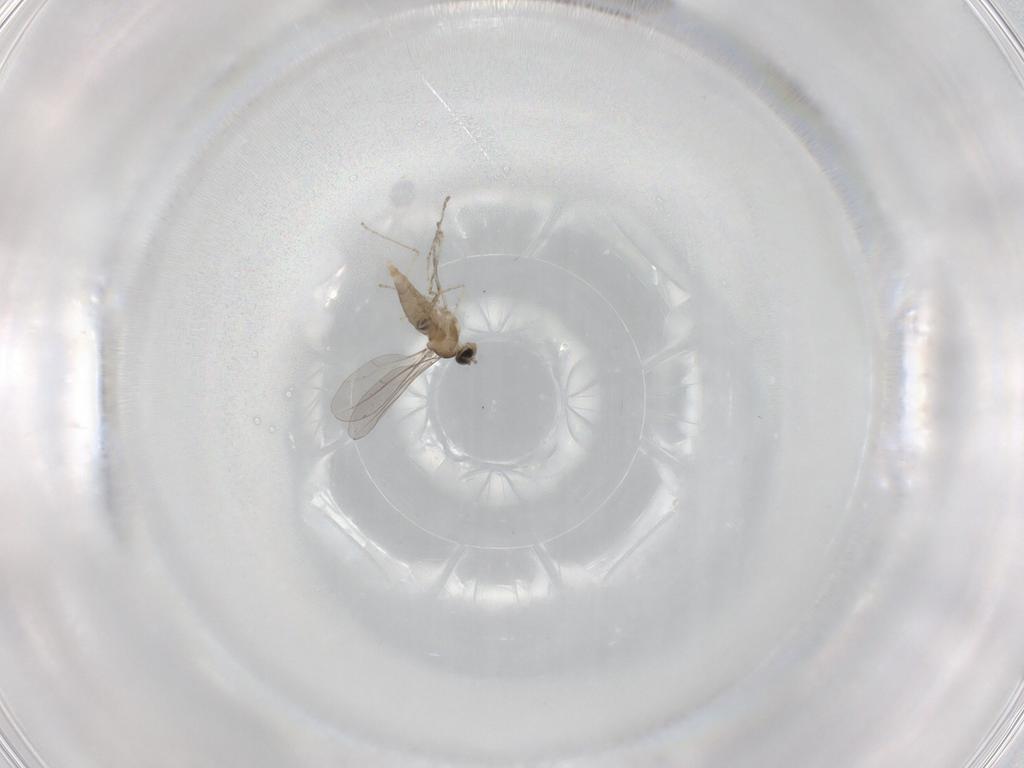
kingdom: Animalia
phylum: Arthropoda
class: Insecta
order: Diptera
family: Cecidomyiidae
